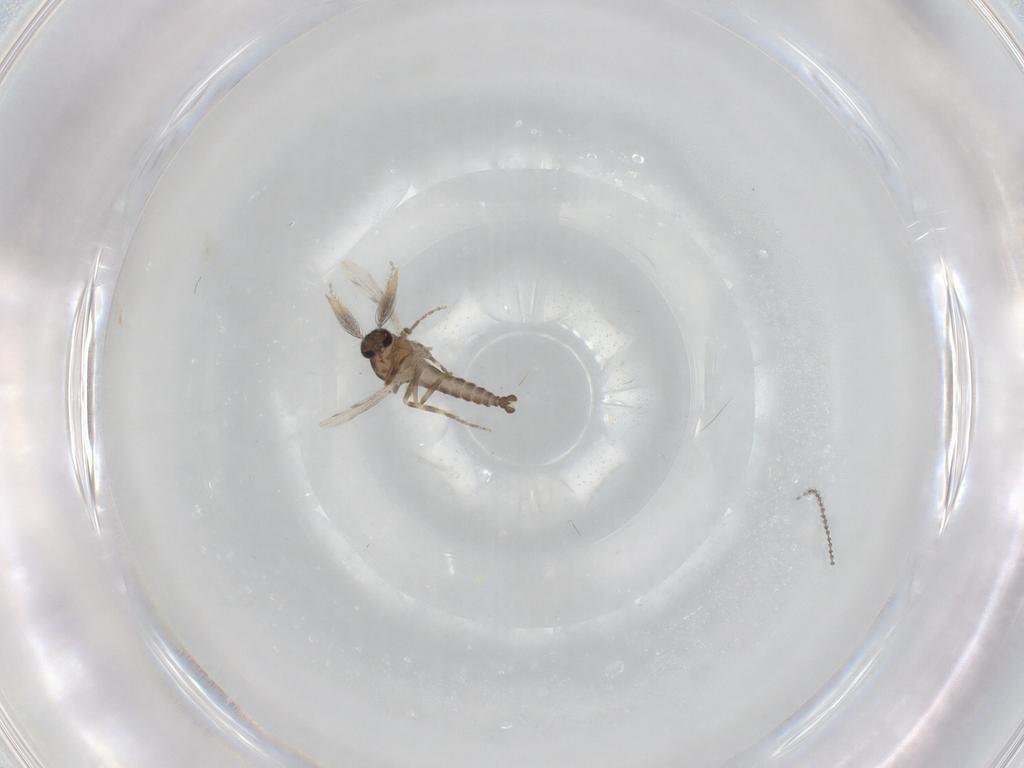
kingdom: Animalia
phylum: Arthropoda
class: Insecta
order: Diptera
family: Ceratopogonidae
